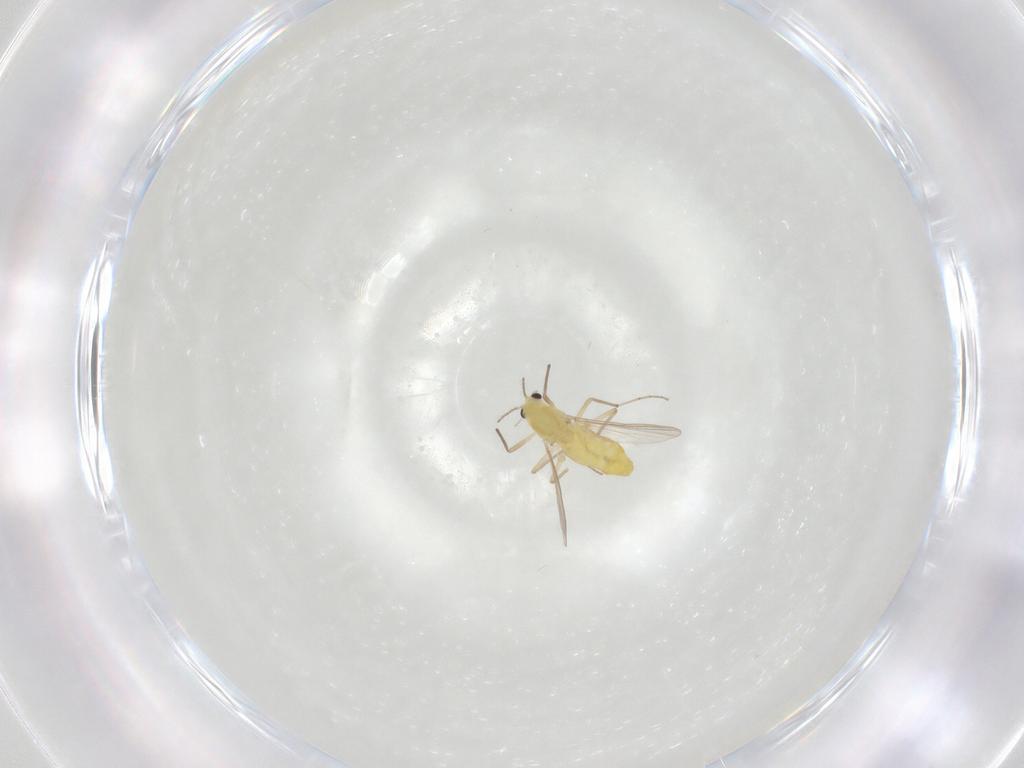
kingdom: Animalia
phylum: Arthropoda
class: Insecta
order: Diptera
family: Chironomidae
